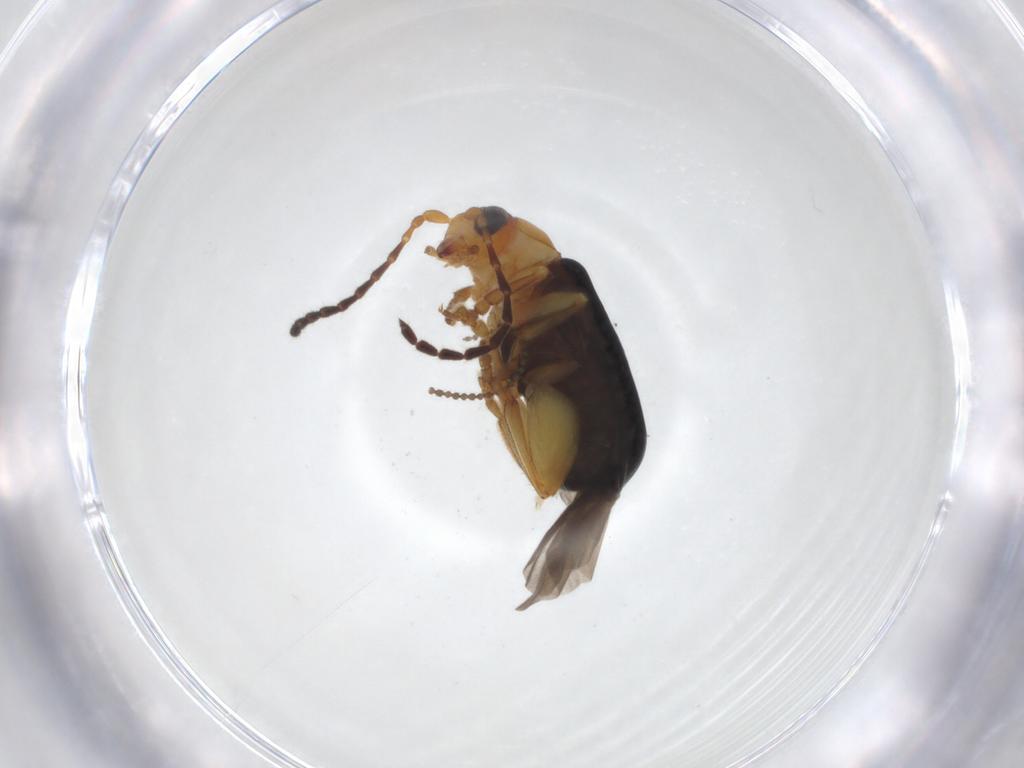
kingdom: Animalia
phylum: Arthropoda
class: Insecta
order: Coleoptera
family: Chrysomelidae
